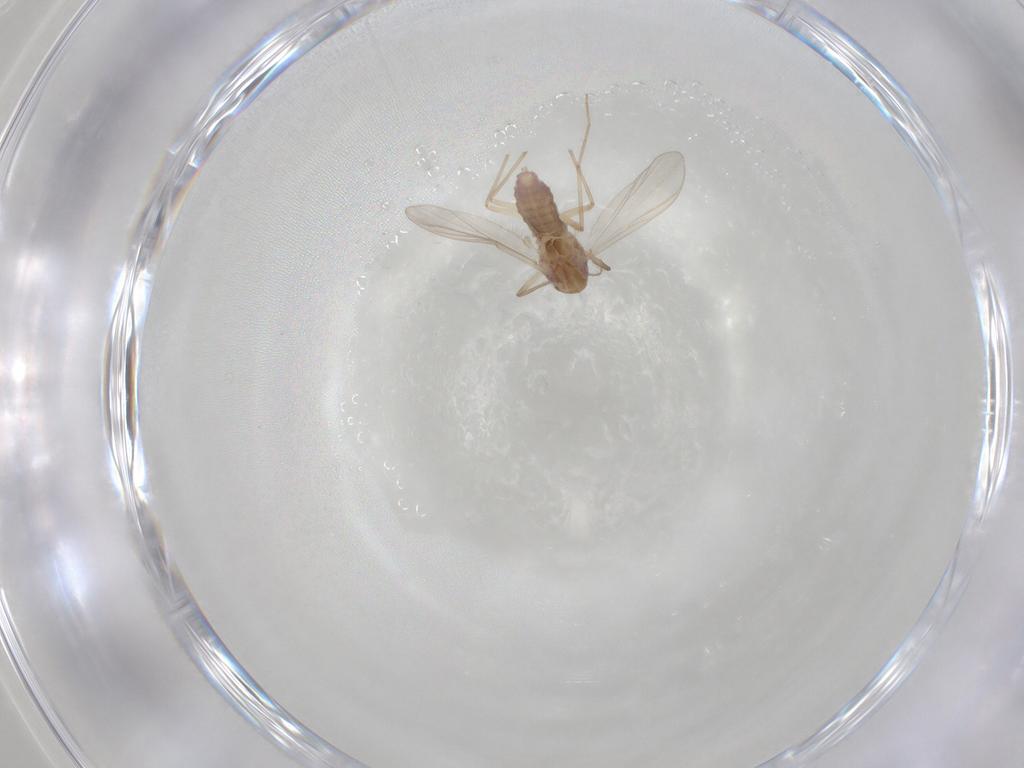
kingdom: Animalia
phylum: Arthropoda
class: Insecta
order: Diptera
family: Chironomidae
